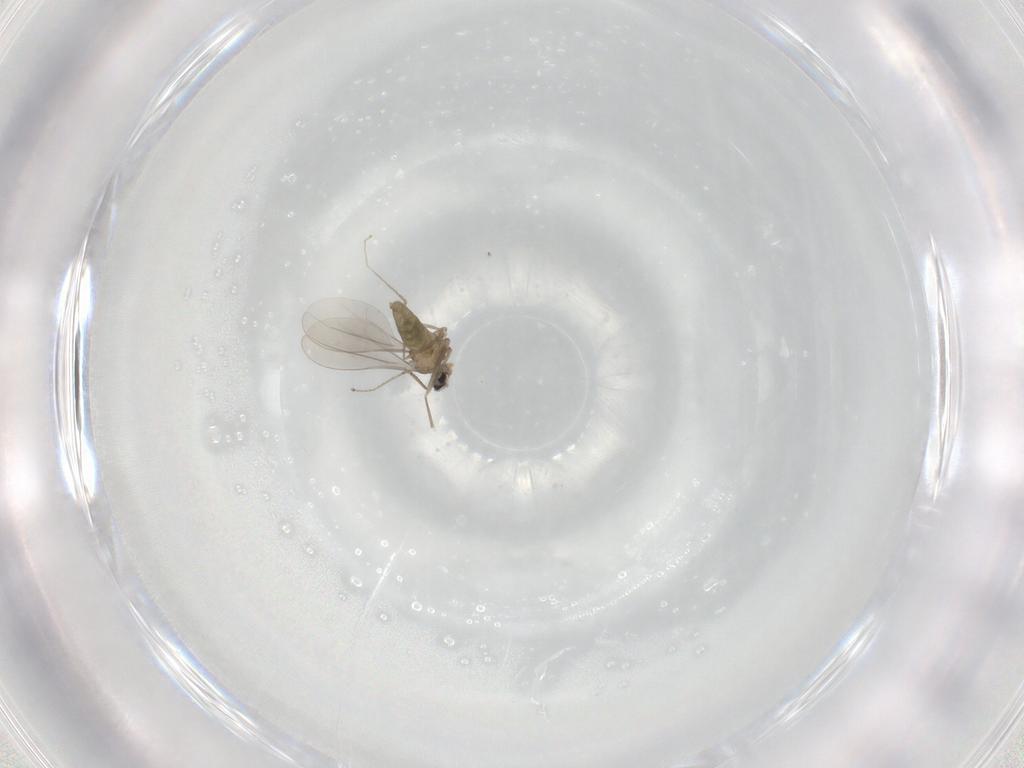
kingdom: Animalia
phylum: Arthropoda
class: Insecta
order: Diptera
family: Cecidomyiidae
